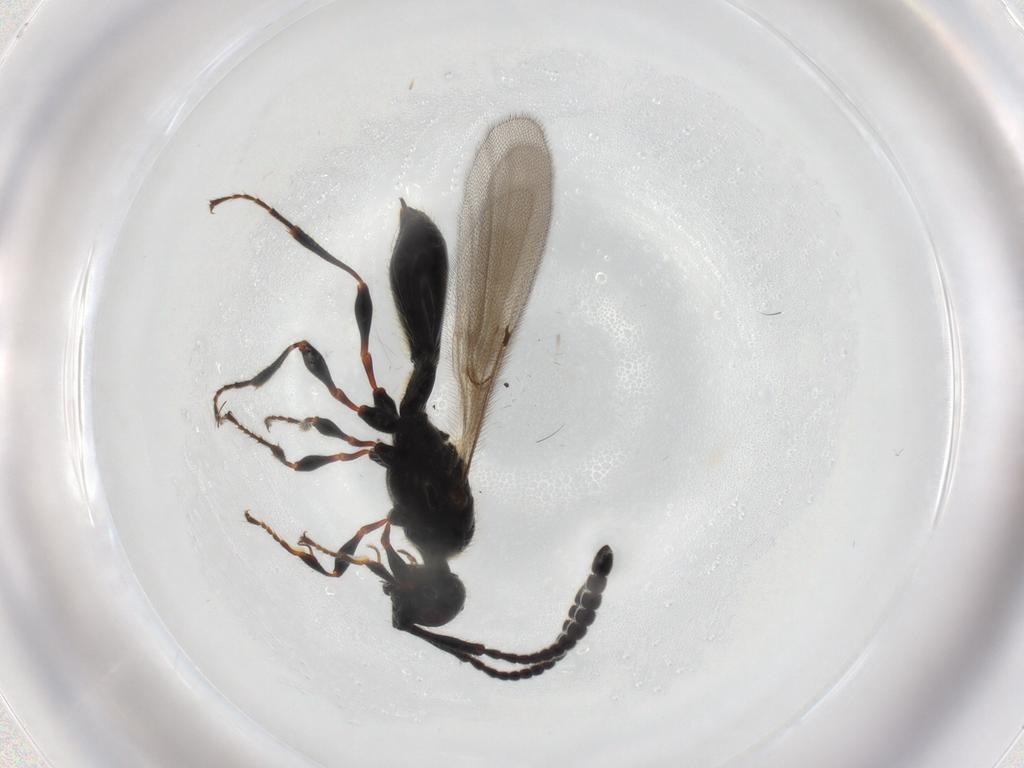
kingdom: Animalia
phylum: Arthropoda
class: Insecta
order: Hymenoptera
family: Diapriidae
